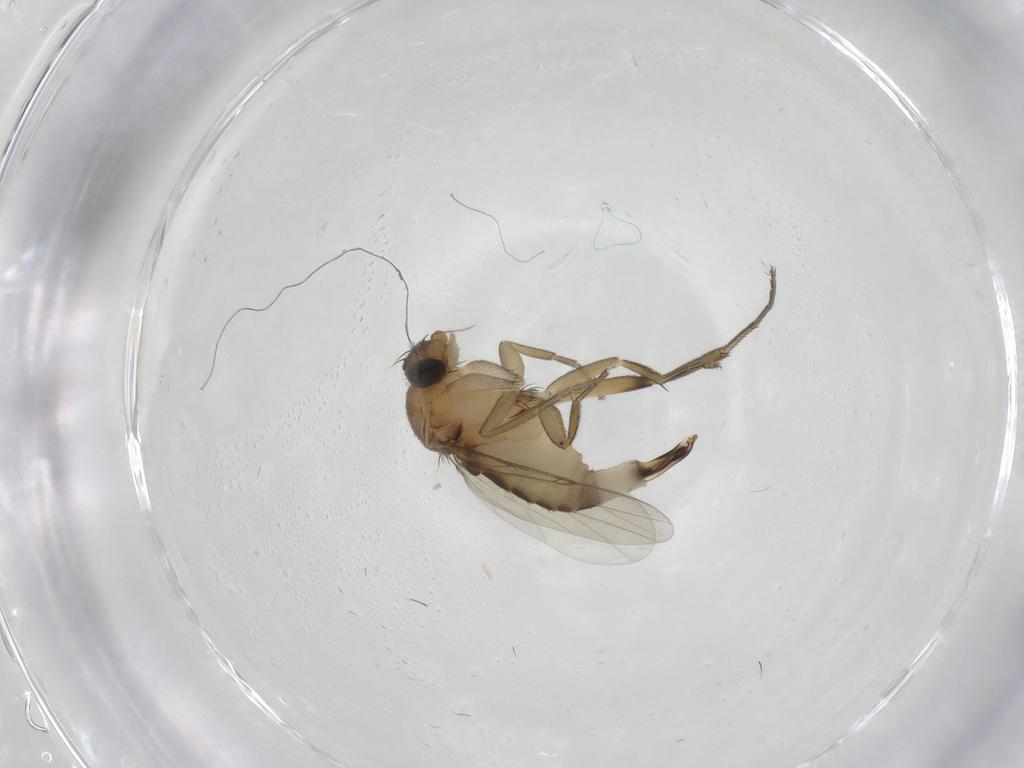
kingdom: Animalia
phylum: Arthropoda
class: Insecta
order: Diptera
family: Phoridae
